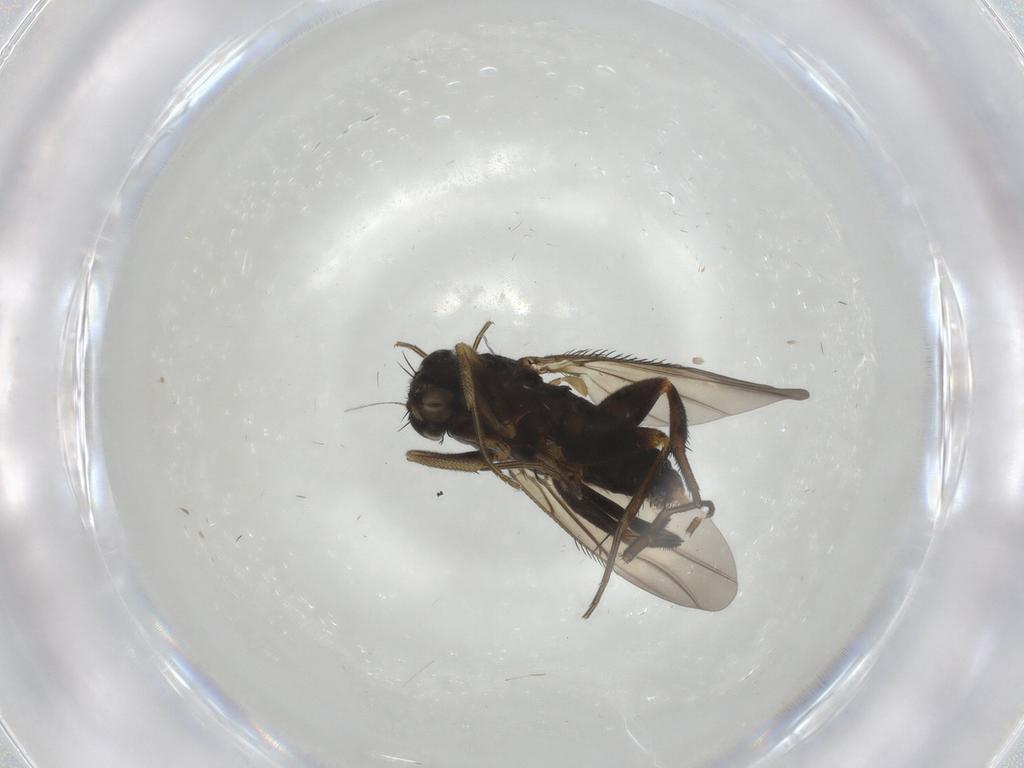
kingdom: Animalia
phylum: Arthropoda
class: Insecta
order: Diptera
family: Phoridae
